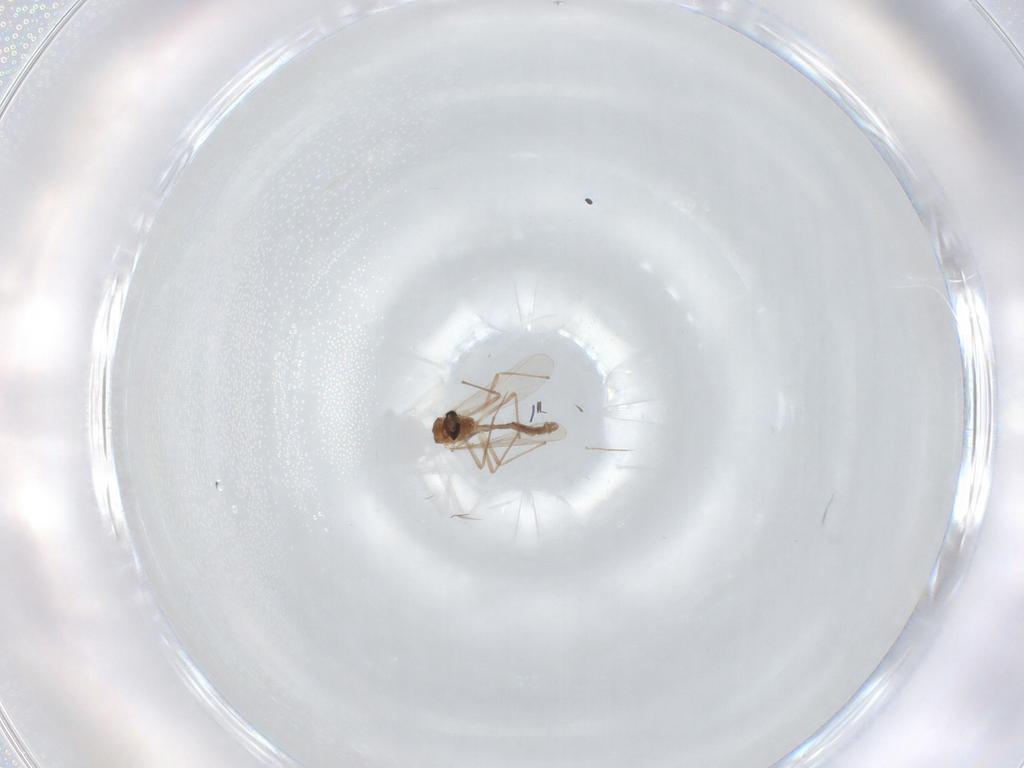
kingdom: Animalia
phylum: Arthropoda
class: Insecta
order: Diptera
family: Chironomidae
